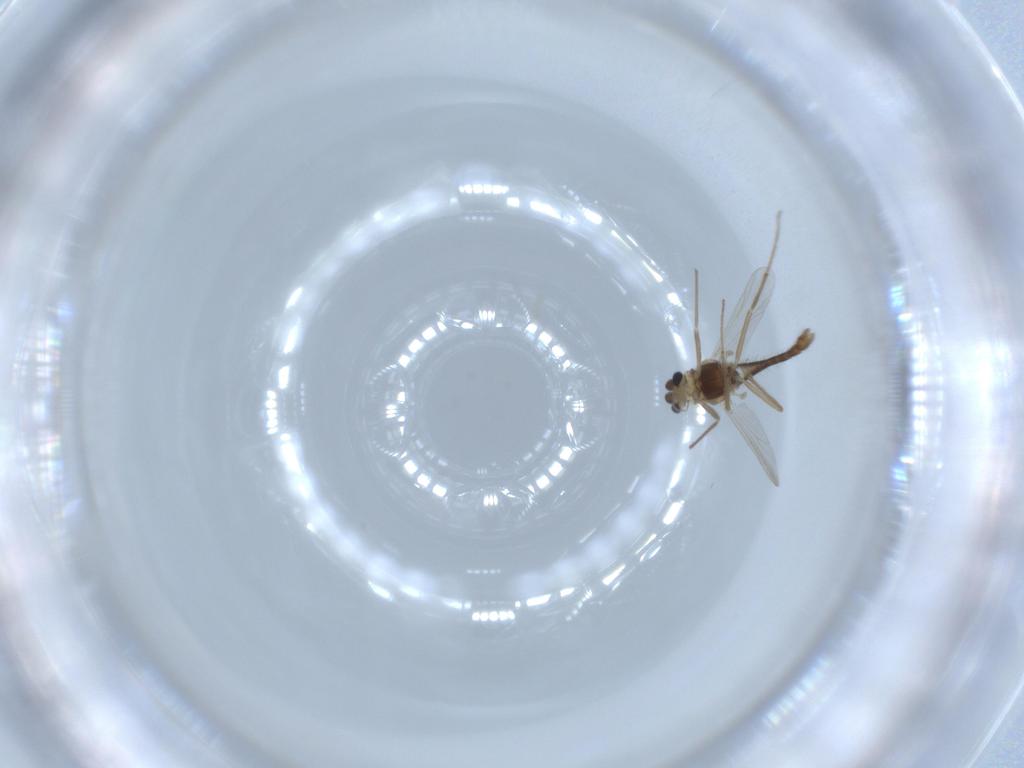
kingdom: Animalia
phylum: Arthropoda
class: Insecta
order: Diptera
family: Chironomidae
